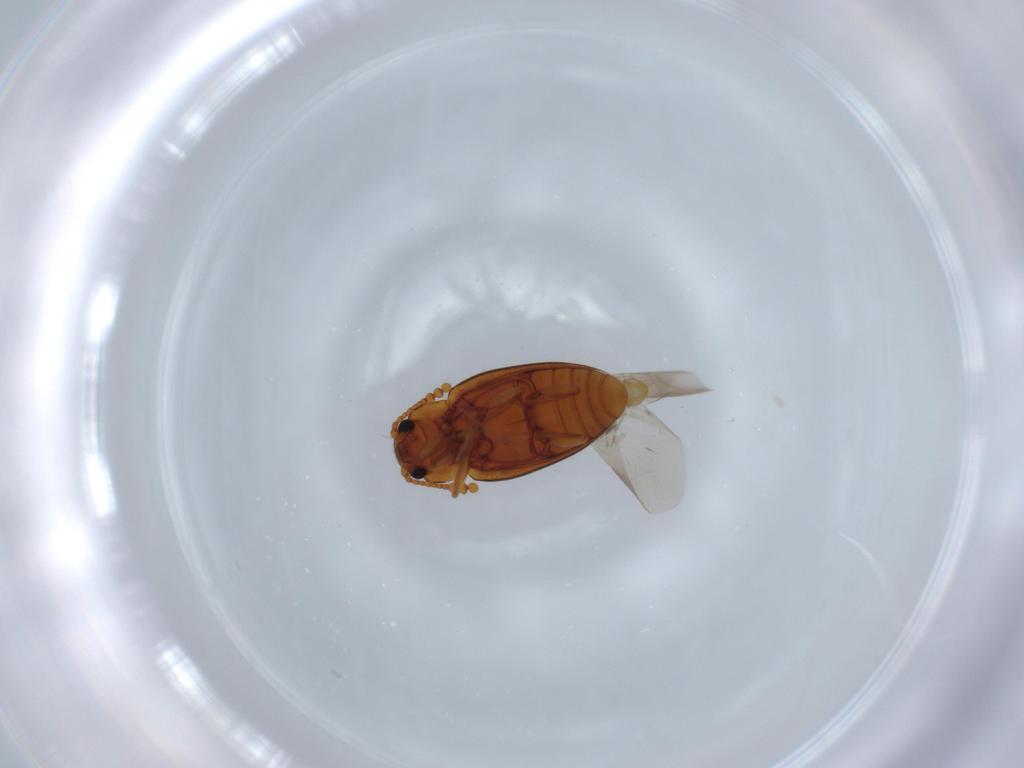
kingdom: Animalia
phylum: Arthropoda
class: Insecta
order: Coleoptera
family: Erotylidae
